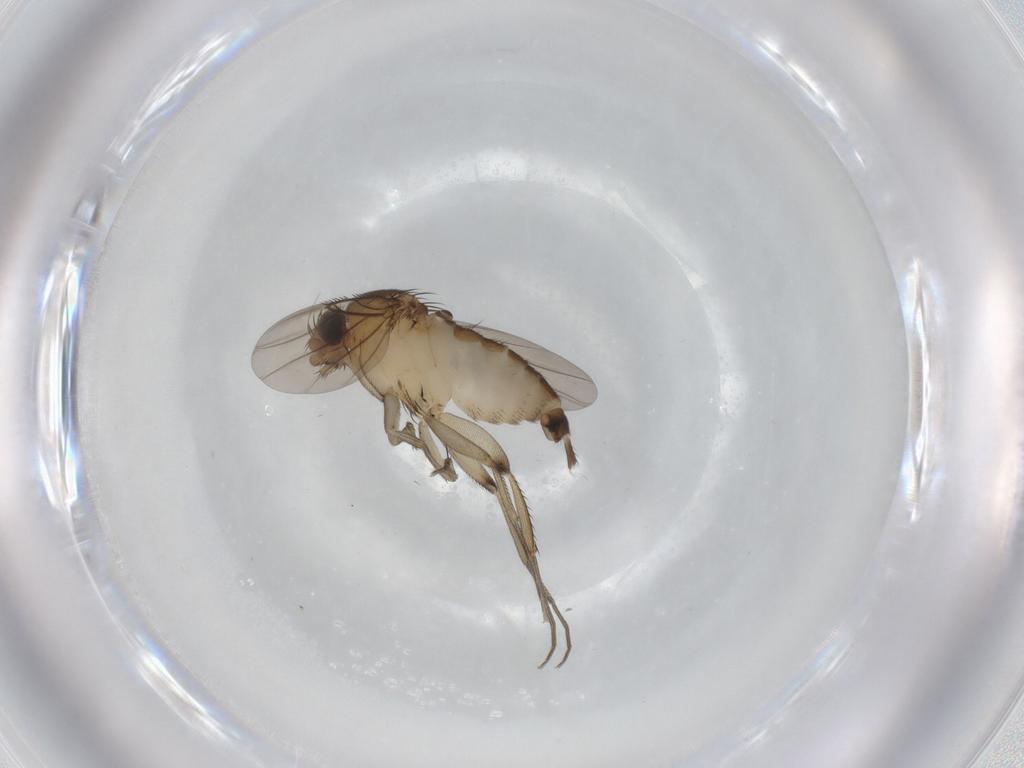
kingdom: Animalia
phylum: Arthropoda
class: Insecta
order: Diptera
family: Phoridae
